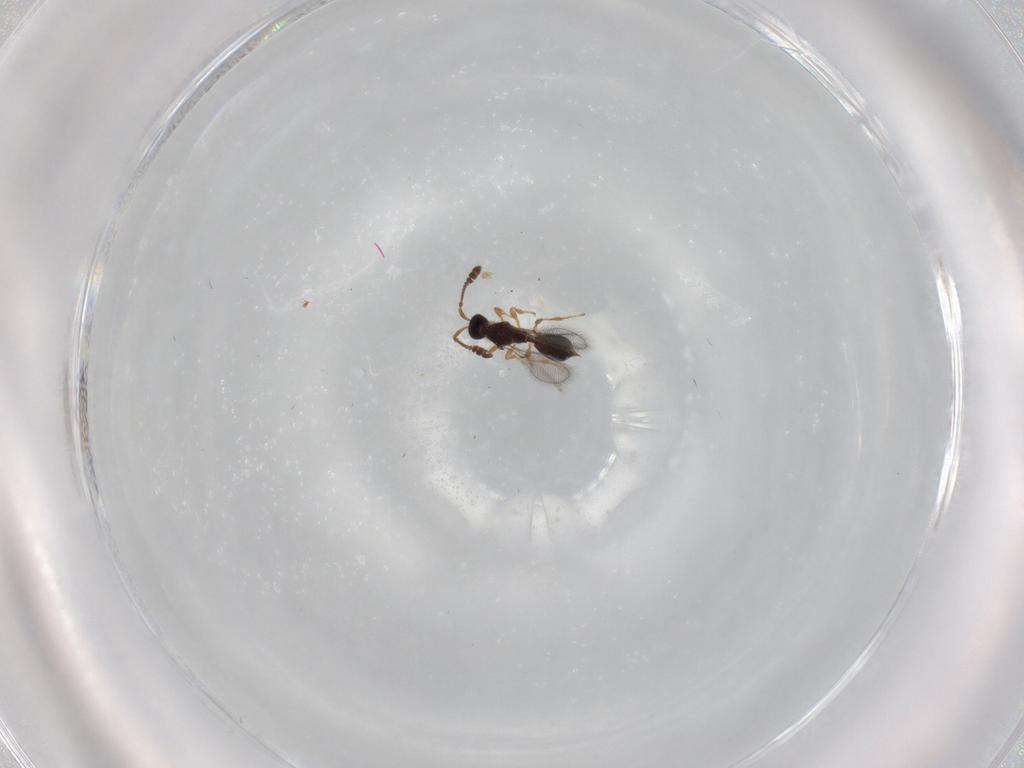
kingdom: Animalia
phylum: Arthropoda
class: Insecta
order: Hymenoptera
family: Diapriidae
